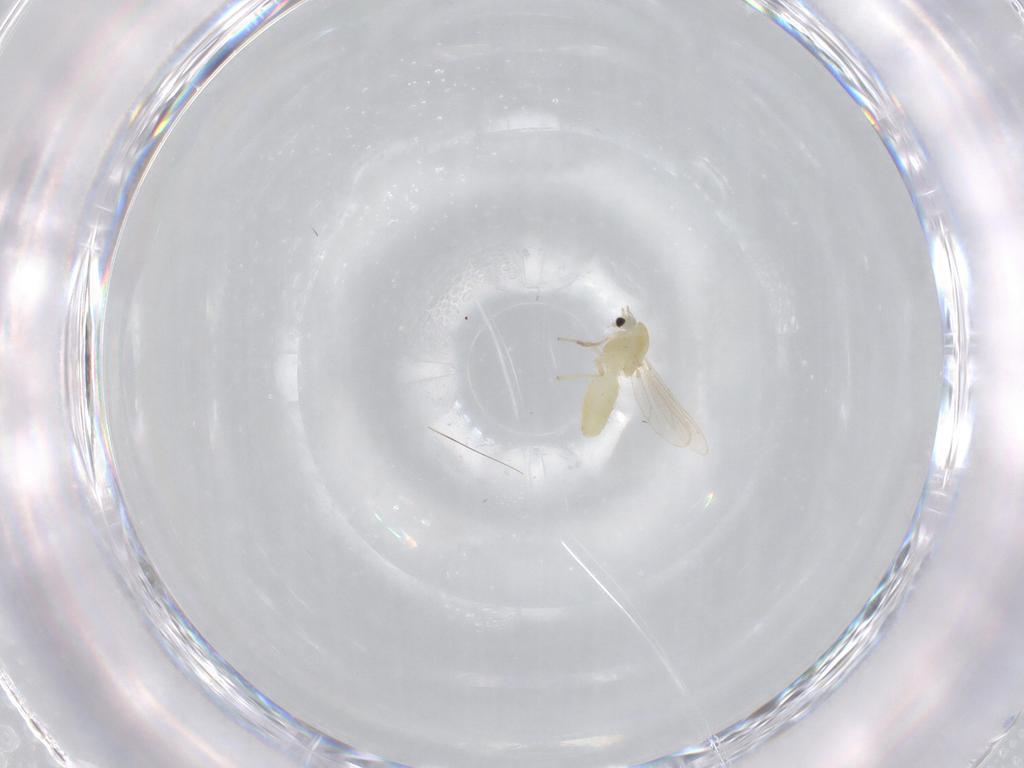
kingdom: Animalia
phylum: Arthropoda
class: Insecta
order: Diptera
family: Chironomidae
